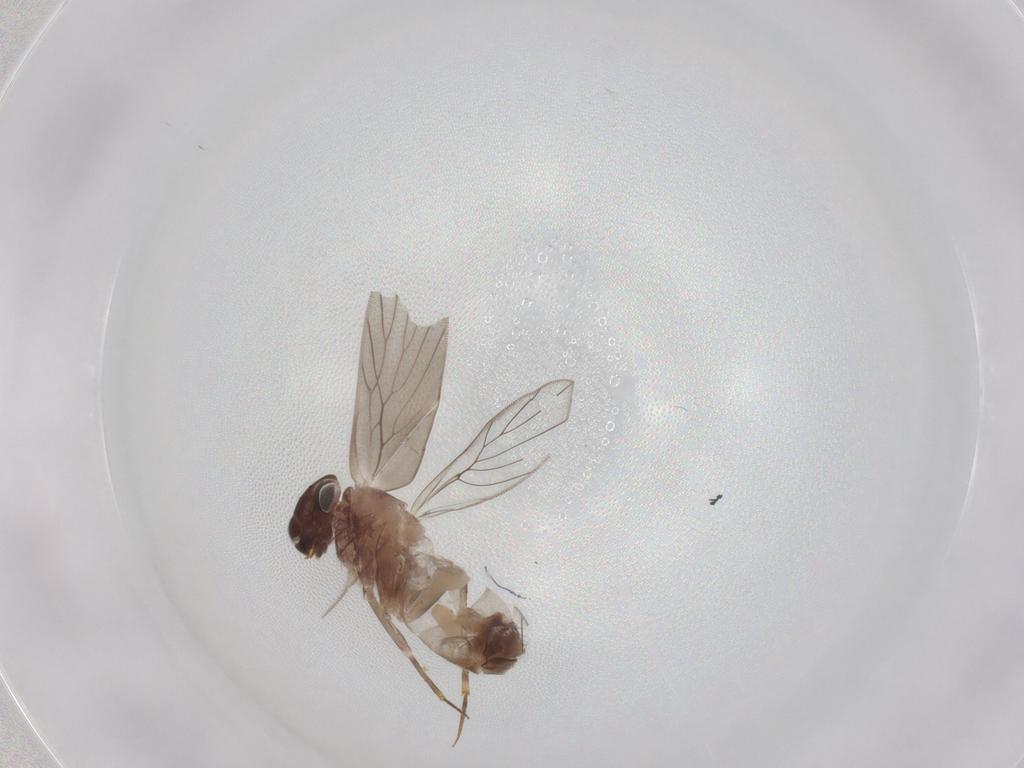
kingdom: Animalia
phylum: Arthropoda
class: Insecta
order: Psocodea
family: Lepidopsocidae
